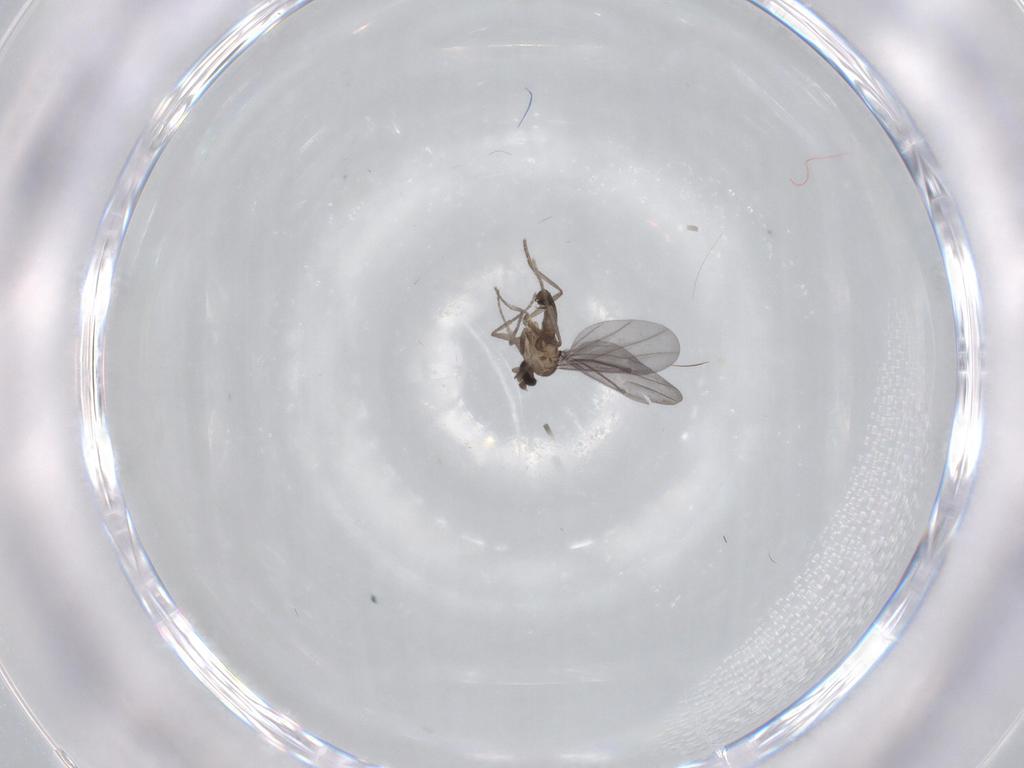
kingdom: Animalia
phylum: Arthropoda
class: Insecta
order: Diptera
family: Phoridae
